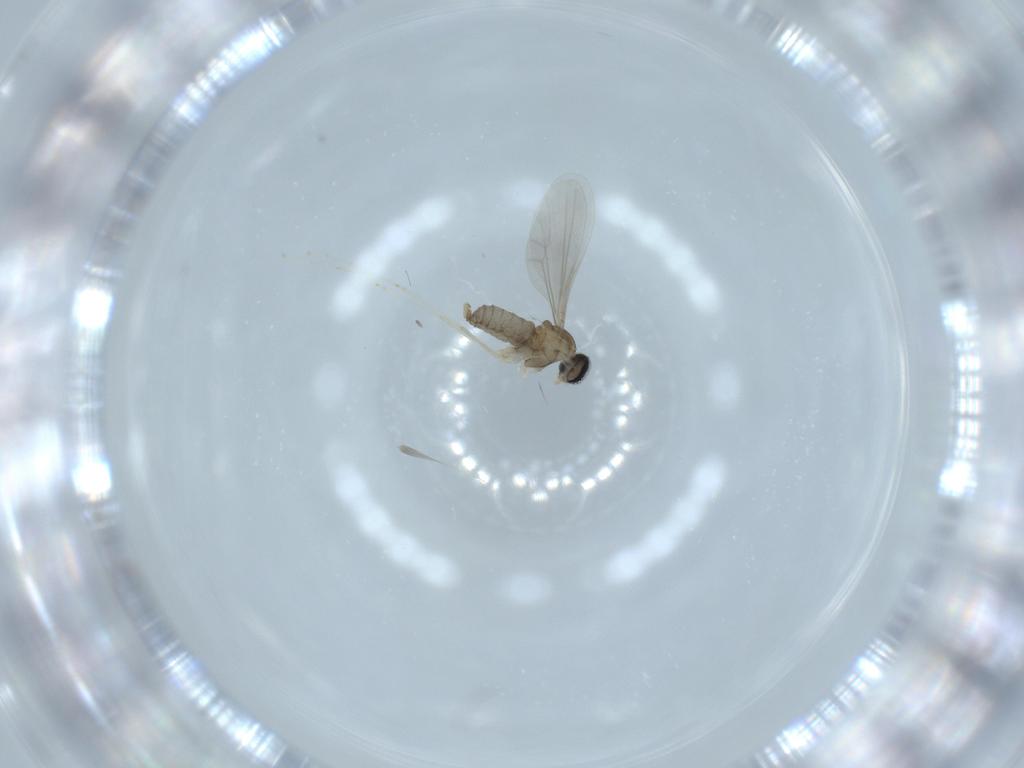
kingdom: Animalia
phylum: Arthropoda
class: Insecta
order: Diptera
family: Cecidomyiidae
